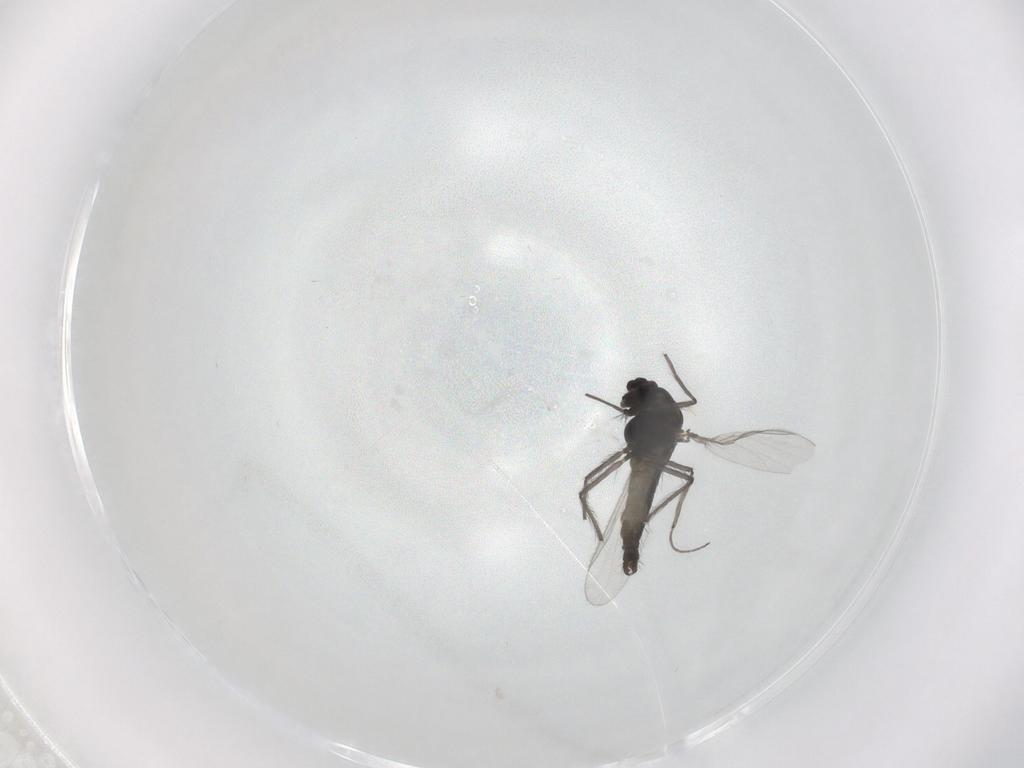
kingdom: Animalia
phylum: Arthropoda
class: Insecta
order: Diptera
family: Chironomidae
